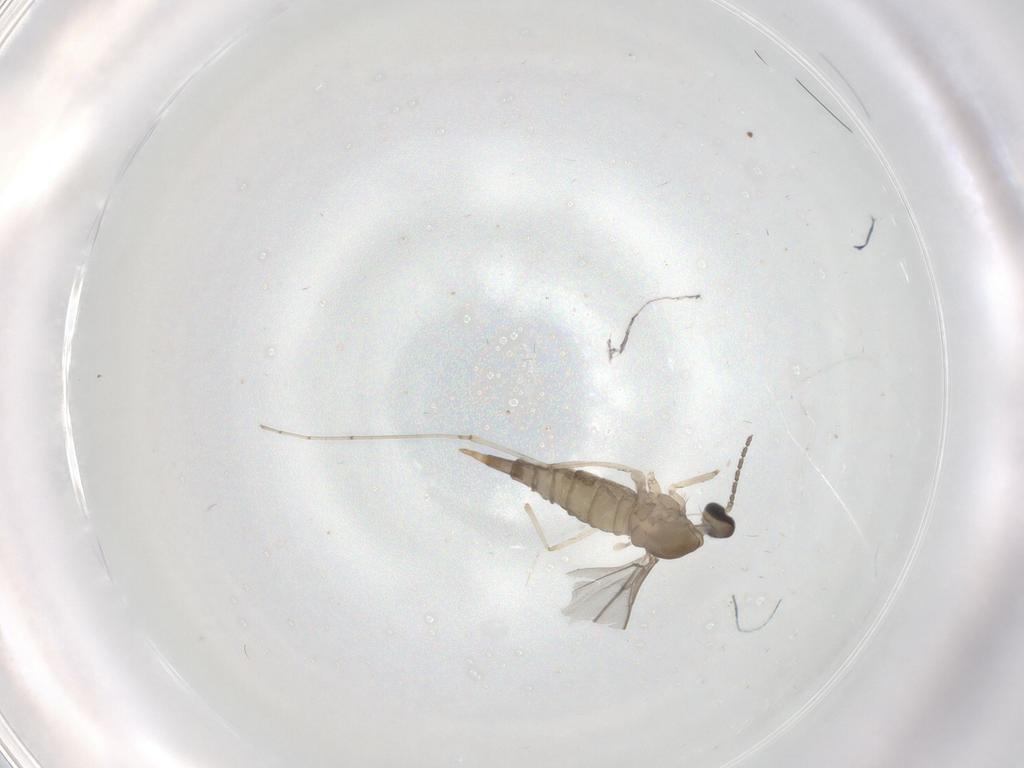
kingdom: Animalia
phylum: Arthropoda
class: Insecta
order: Diptera
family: Cecidomyiidae
